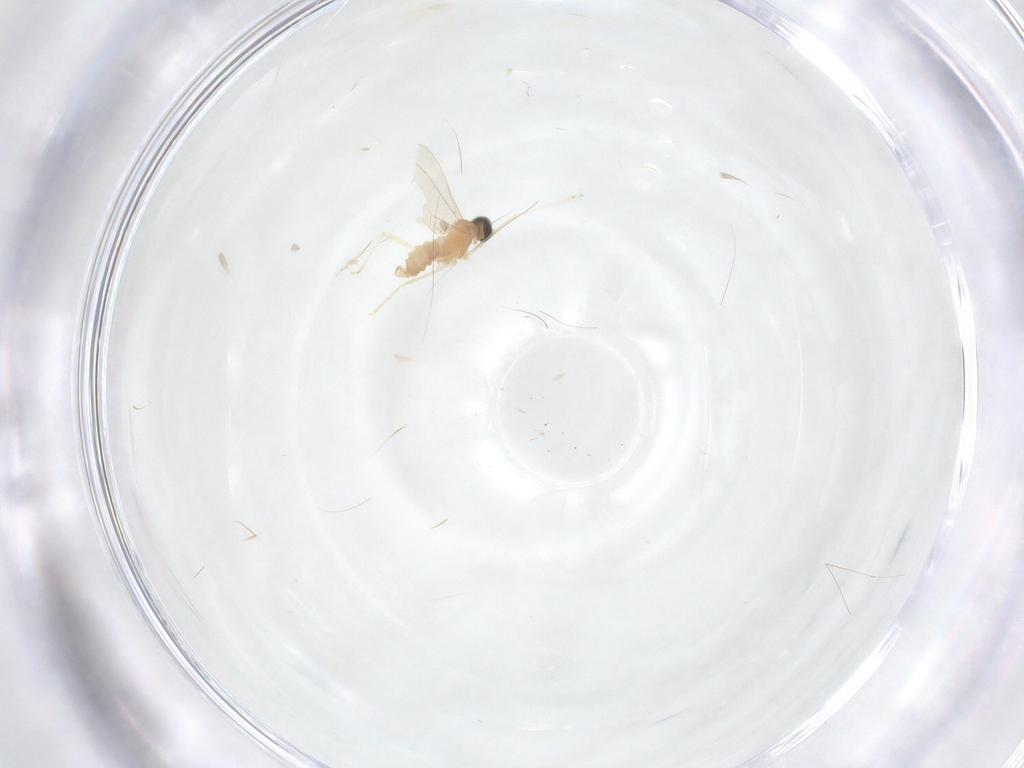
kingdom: Animalia
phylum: Arthropoda
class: Insecta
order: Diptera
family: Cecidomyiidae
